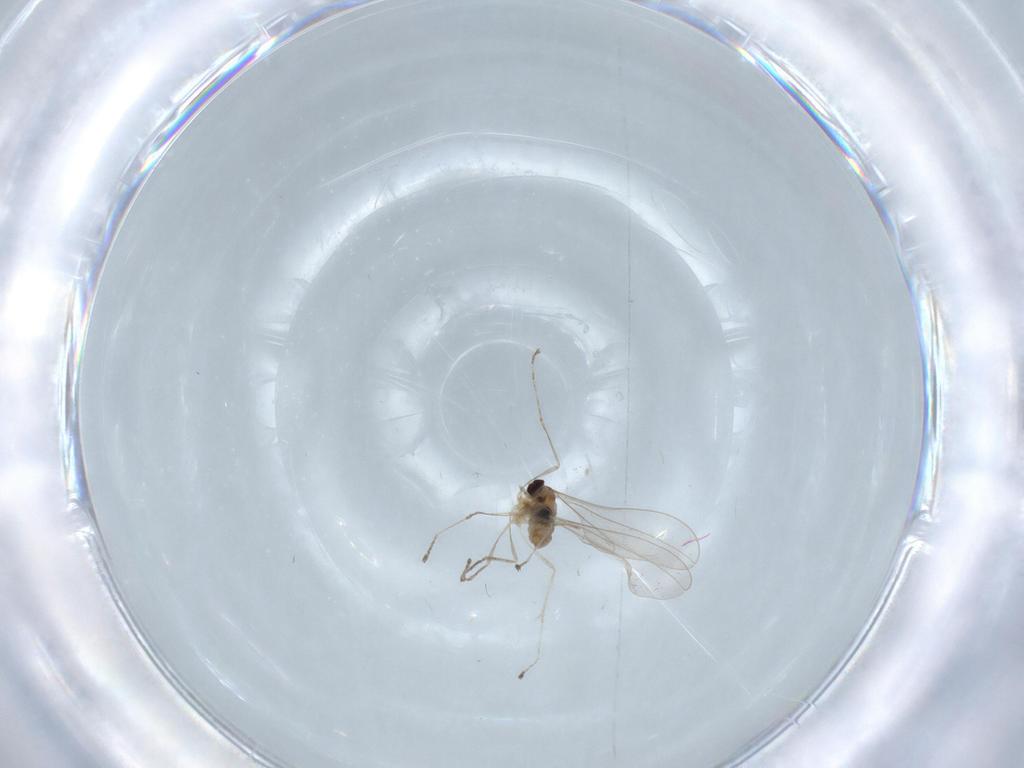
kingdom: Animalia
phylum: Arthropoda
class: Insecta
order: Diptera
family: Cecidomyiidae
